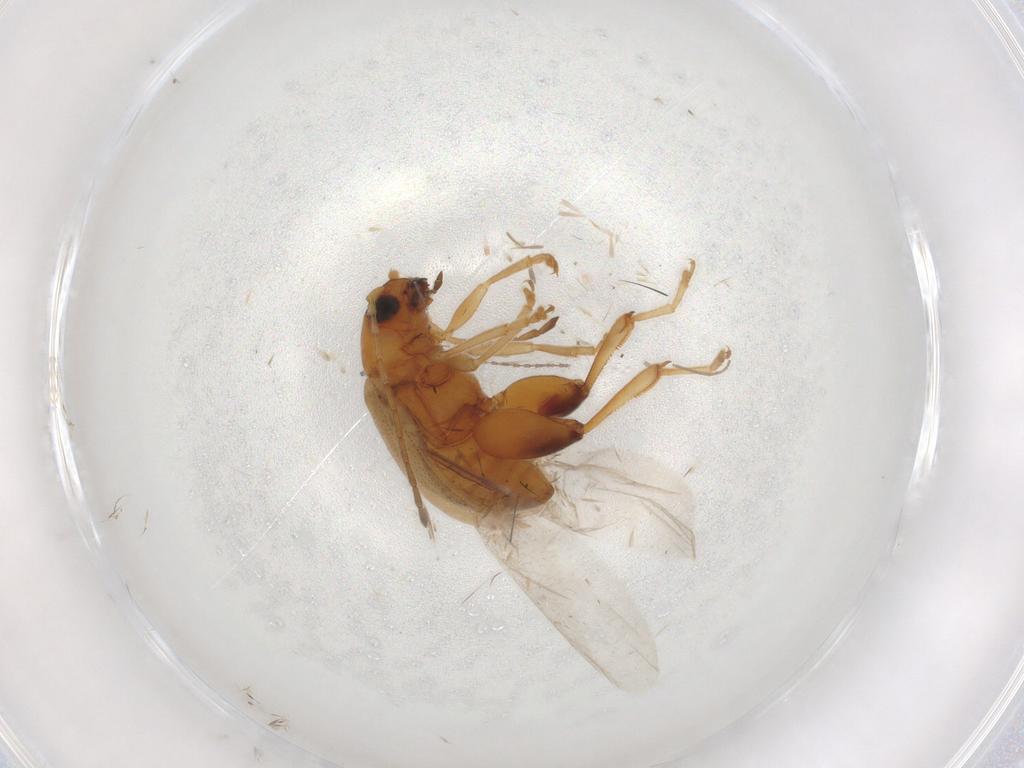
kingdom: Animalia
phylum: Arthropoda
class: Insecta
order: Coleoptera
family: Chrysomelidae
